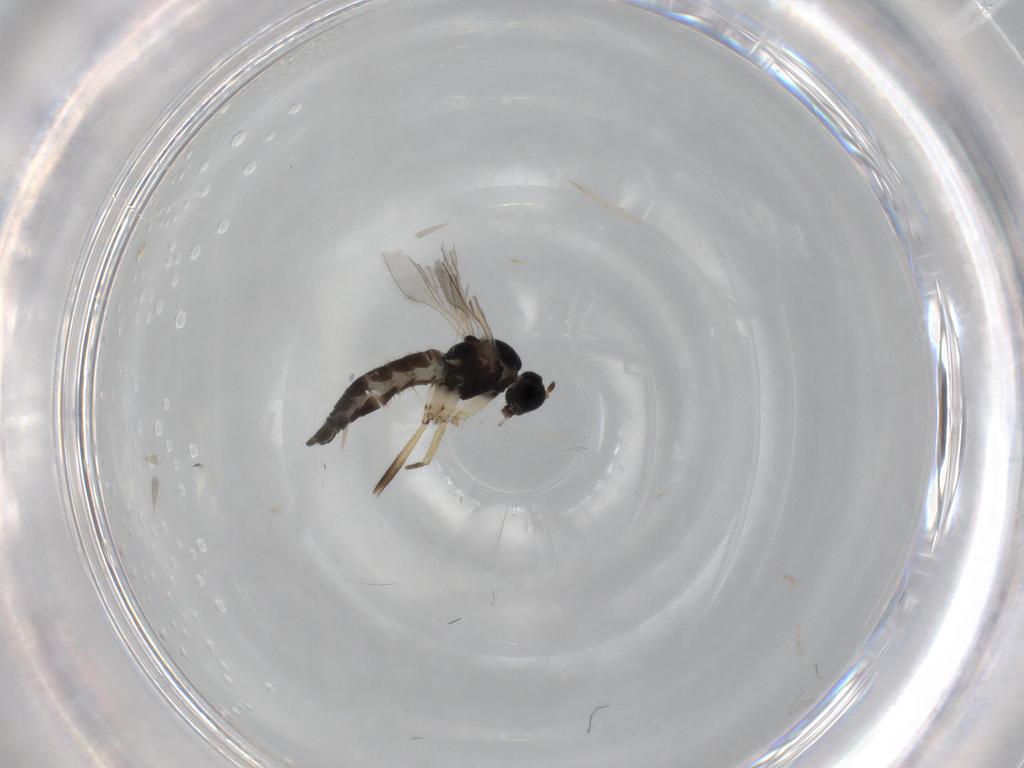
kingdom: Animalia
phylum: Arthropoda
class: Insecta
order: Diptera
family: Sciaridae
